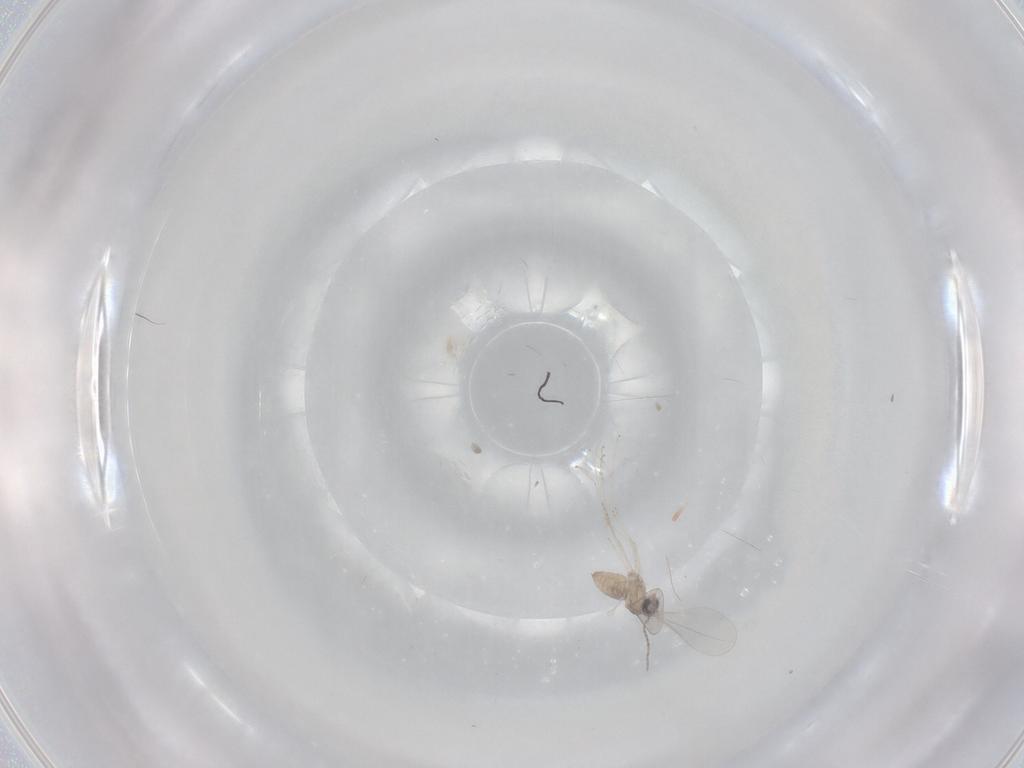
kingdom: Animalia
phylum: Arthropoda
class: Insecta
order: Diptera
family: Cecidomyiidae
